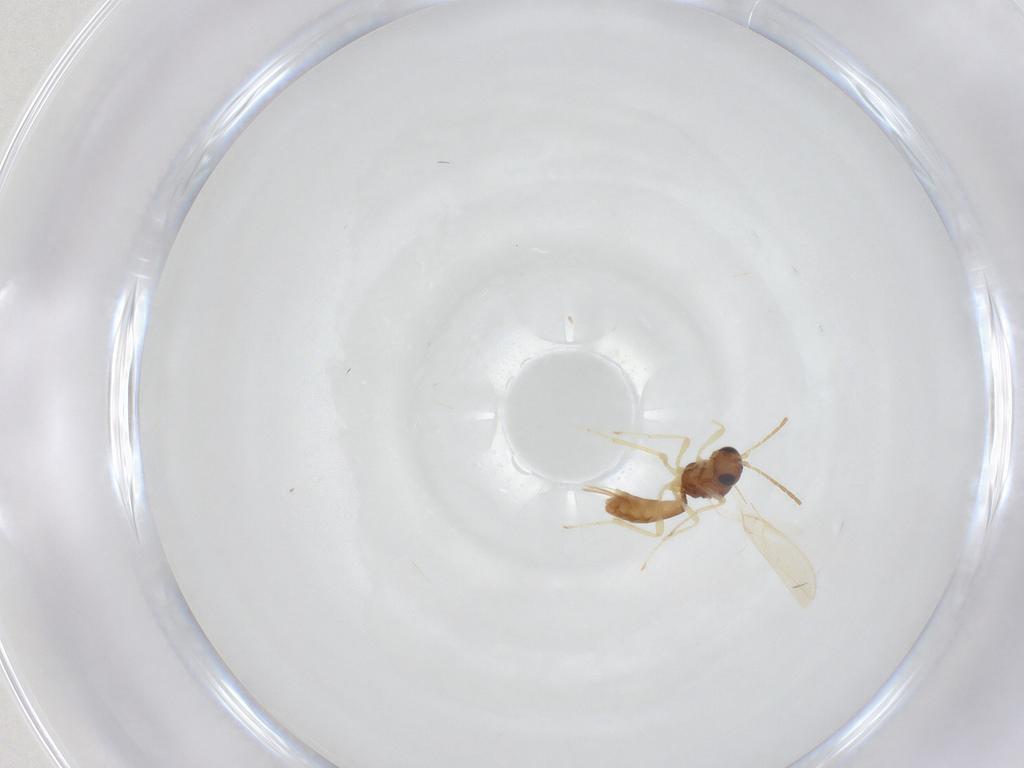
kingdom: Animalia
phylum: Arthropoda
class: Insecta
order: Hymenoptera
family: Braconidae
